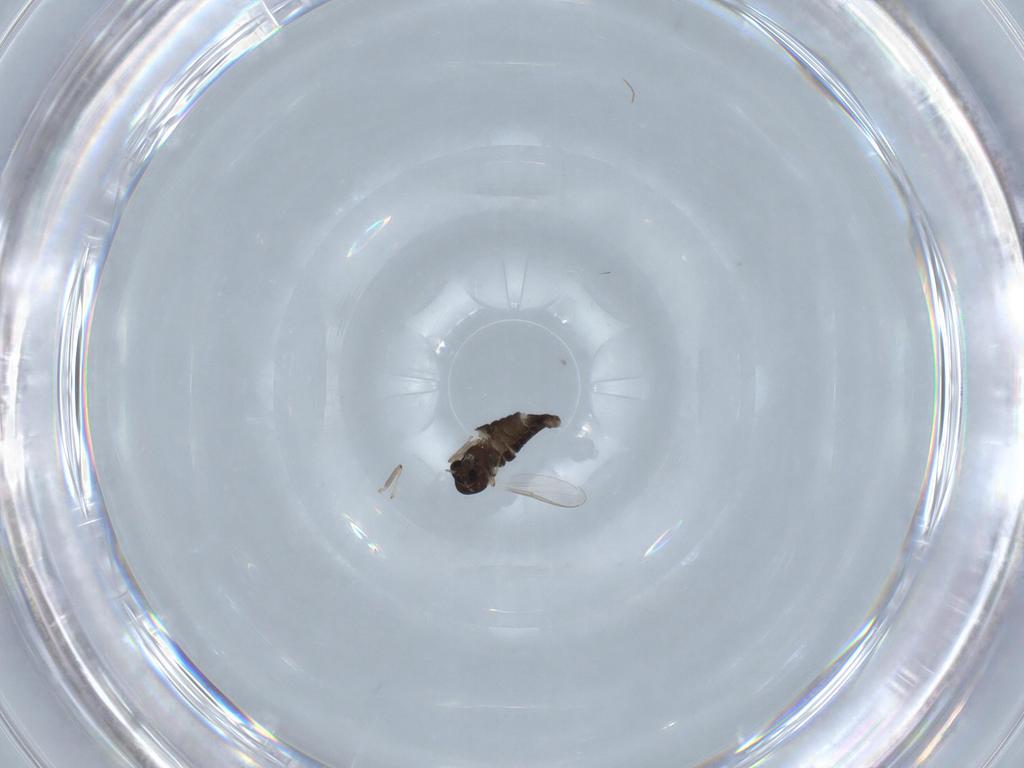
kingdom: Animalia
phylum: Arthropoda
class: Insecta
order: Diptera
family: Chironomidae
